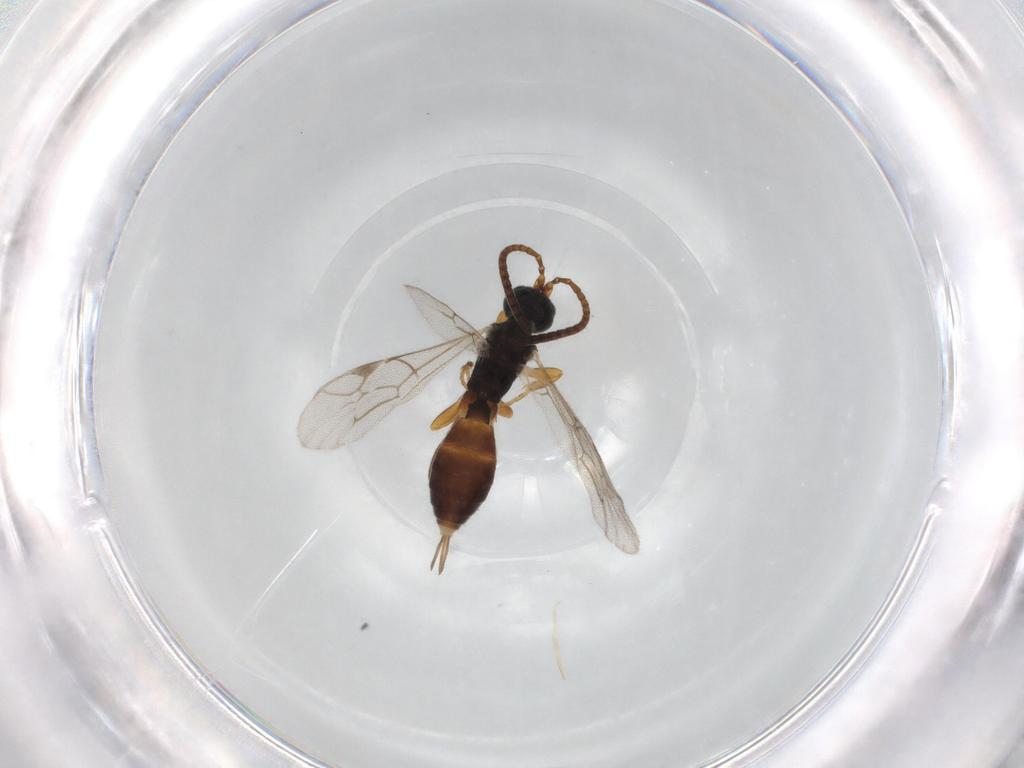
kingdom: Animalia
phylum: Arthropoda
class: Insecta
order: Hymenoptera
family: Ichneumonidae
